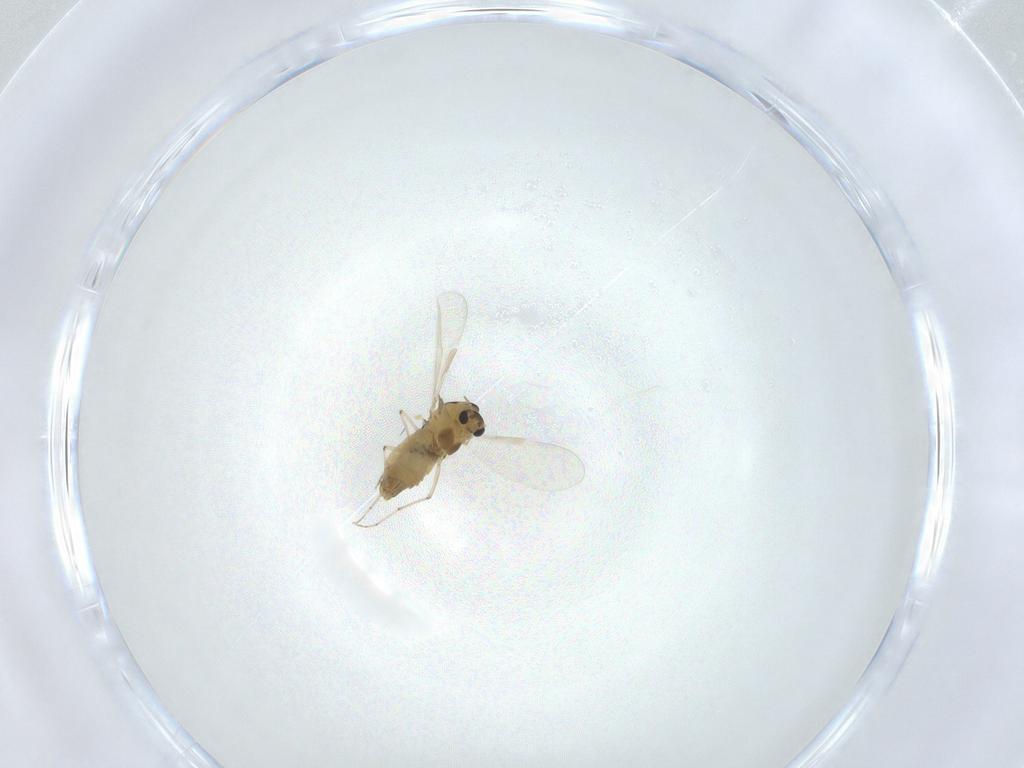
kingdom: Animalia
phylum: Arthropoda
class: Insecta
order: Diptera
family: Chironomidae
